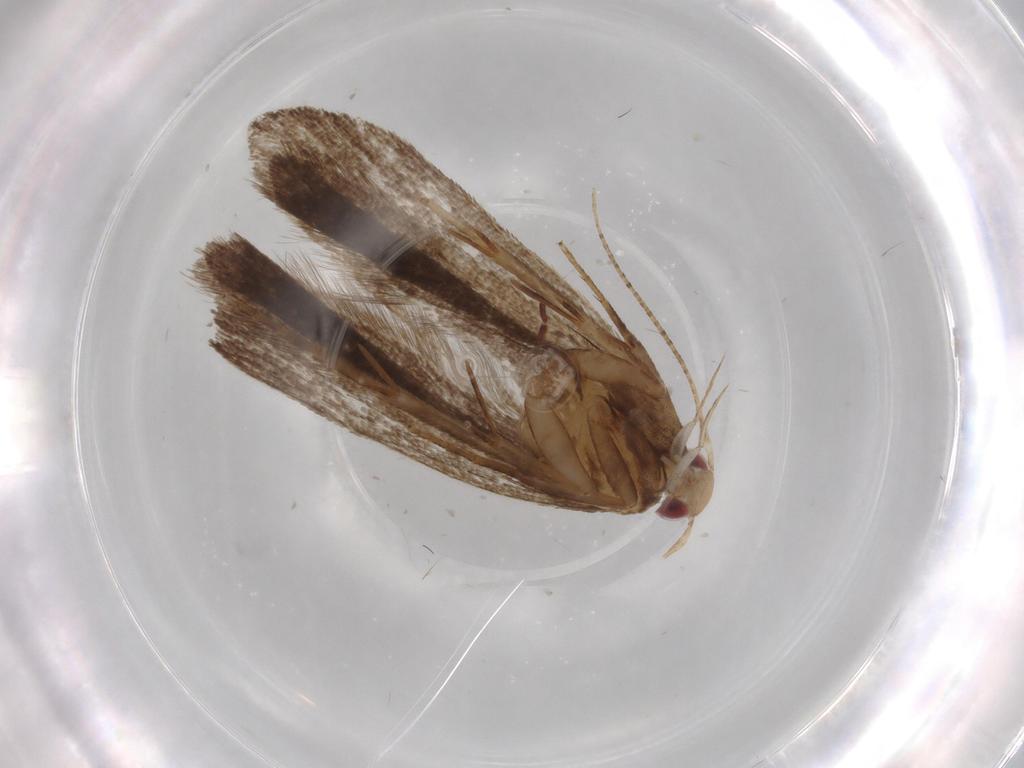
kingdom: Animalia
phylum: Arthropoda
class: Insecta
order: Lepidoptera
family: Gelechiidae
